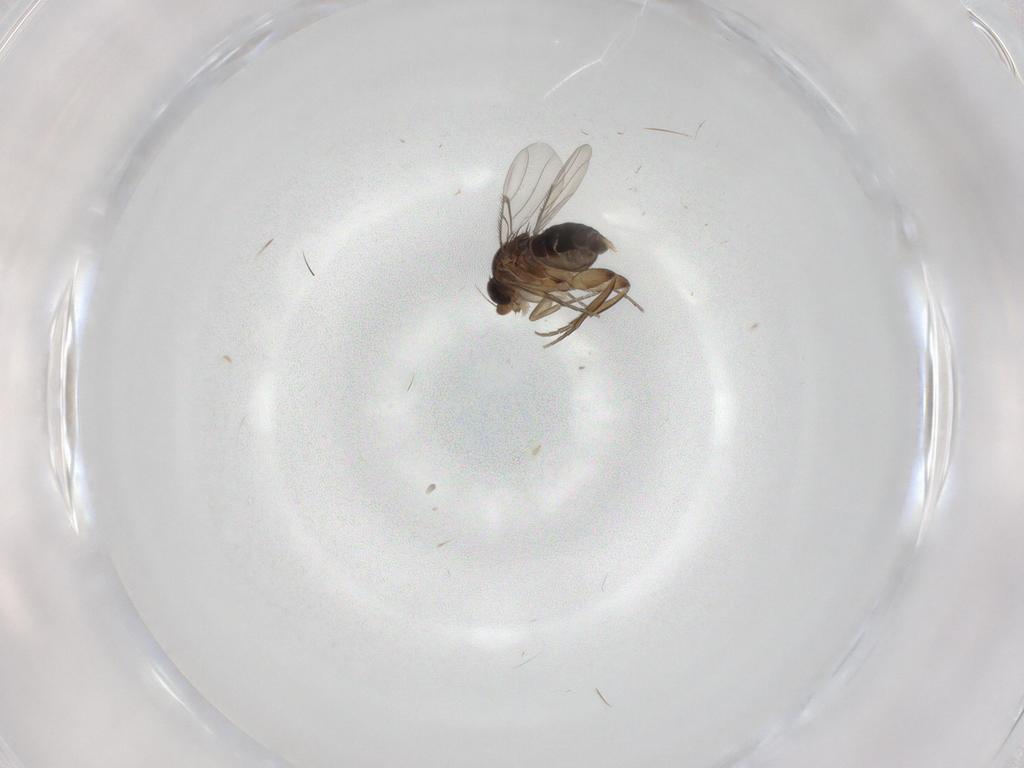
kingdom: Animalia
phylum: Arthropoda
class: Insecta
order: Diptera
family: Phoridae
